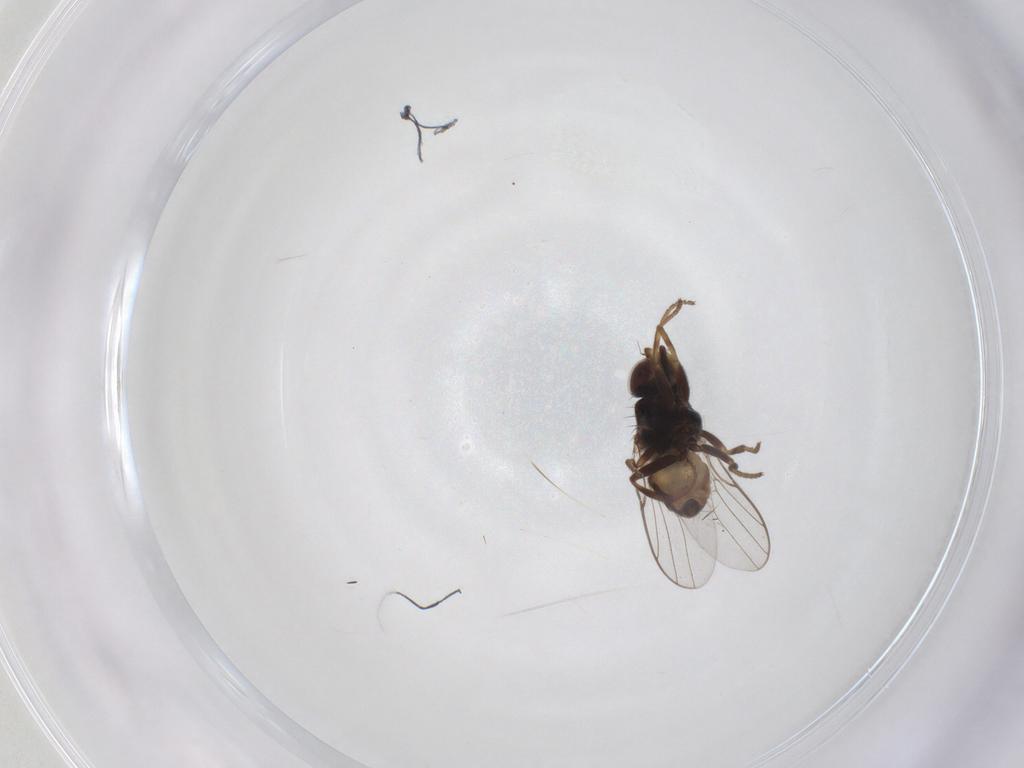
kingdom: Animalia
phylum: Arthropoda
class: Insecta
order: Diptera
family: Chloropidae
